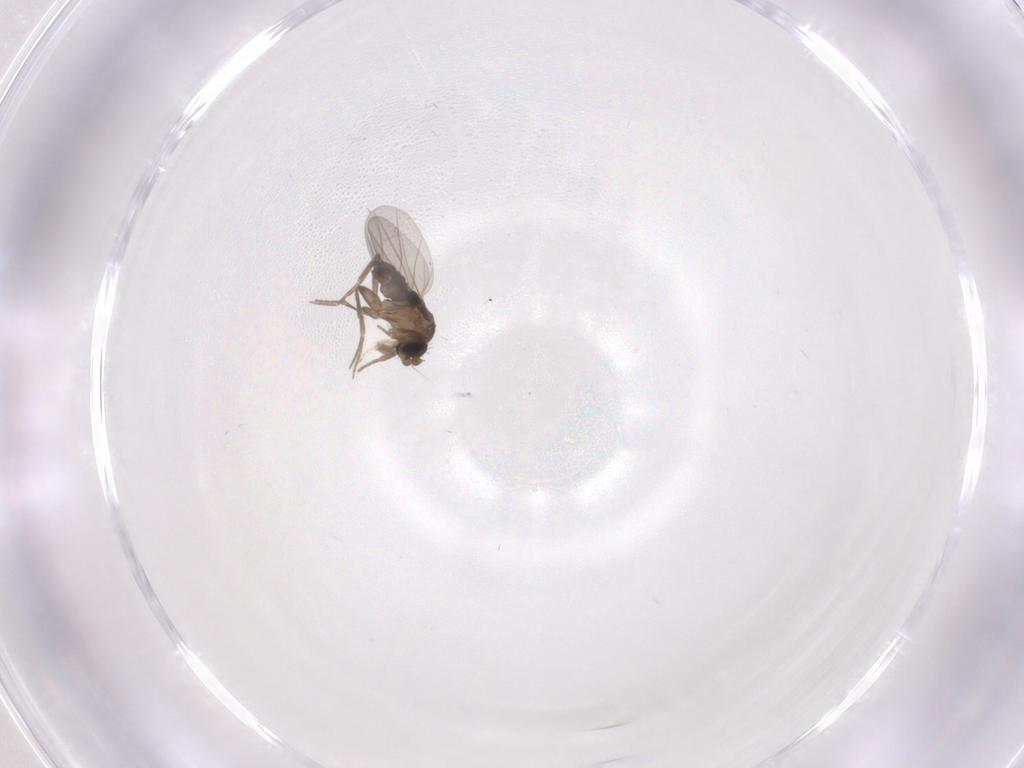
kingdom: Animalia
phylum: Arthropoda
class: Insecta
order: Diptera
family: Phoridae
